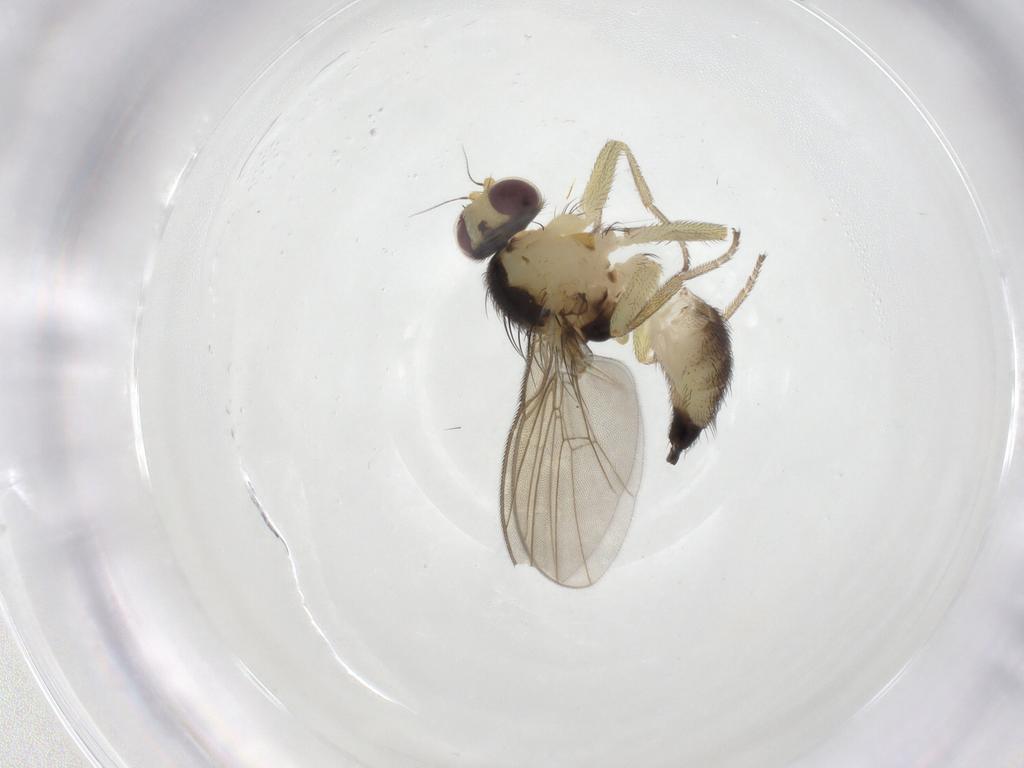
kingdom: Animalia
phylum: Arthropoda
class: Insecta
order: Diptera
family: Agromyzidae
